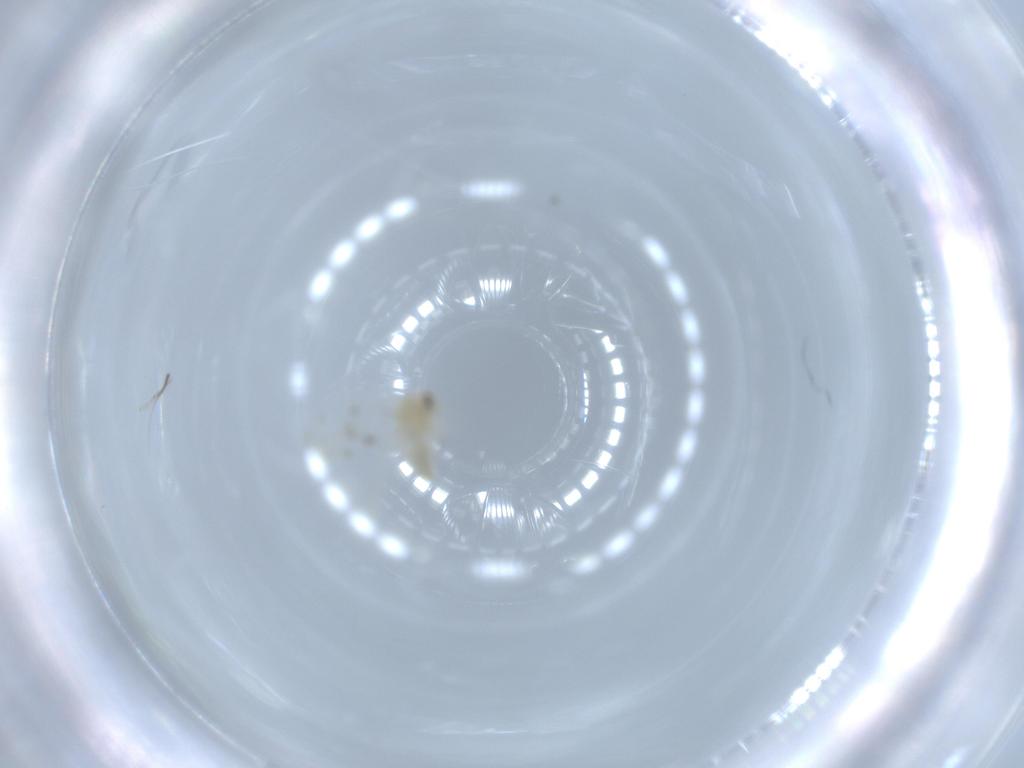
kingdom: Animalia
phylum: Arthropoda
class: Insecta
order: Hemiptera
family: Aleyrodidae
